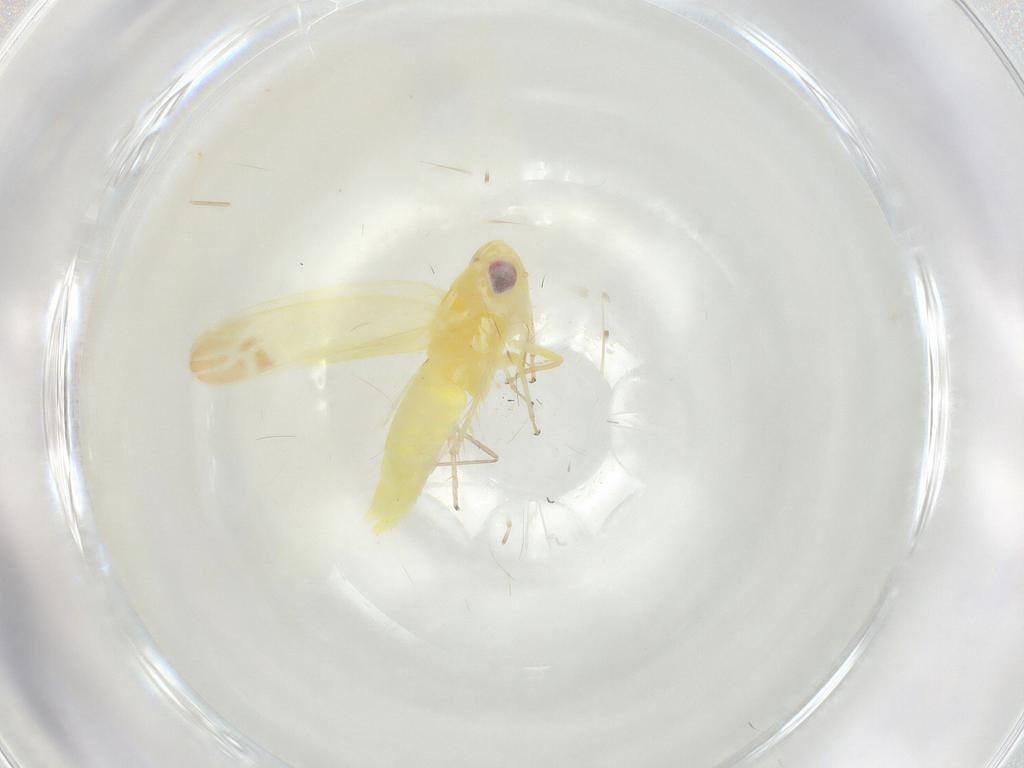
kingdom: Animalia
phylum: Arthropoda
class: Insecta
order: Hemiptera
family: Cicadellidae
